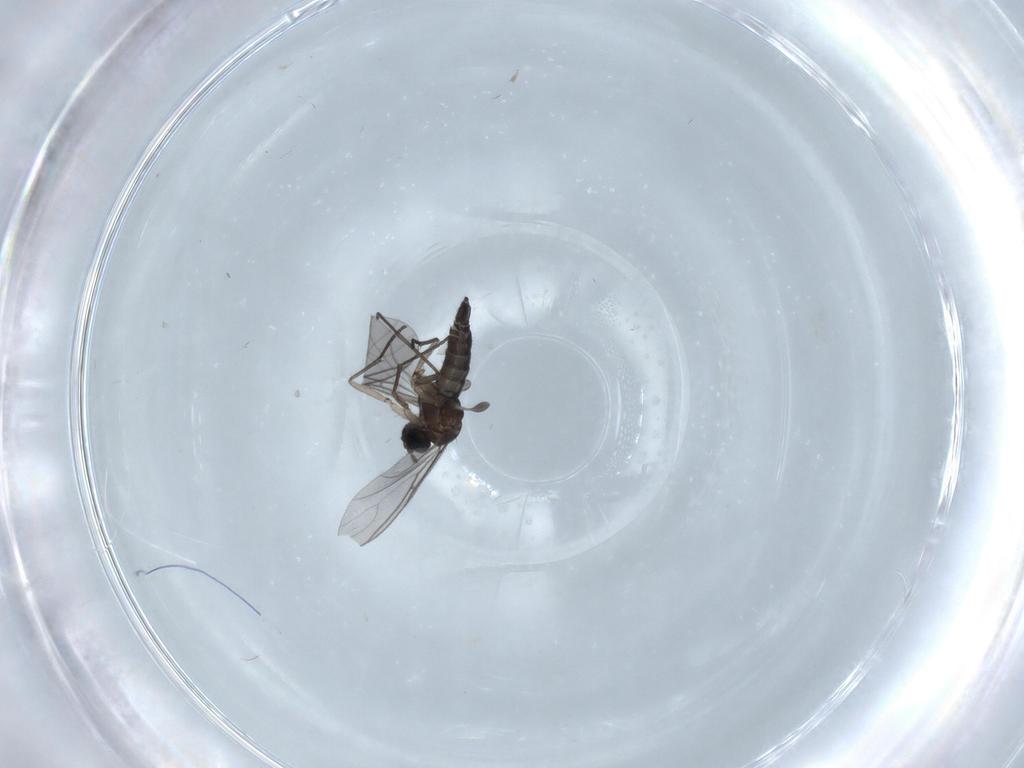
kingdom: Animalia
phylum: Arthropoda
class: Insecta
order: Diptera
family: Sciaridae
